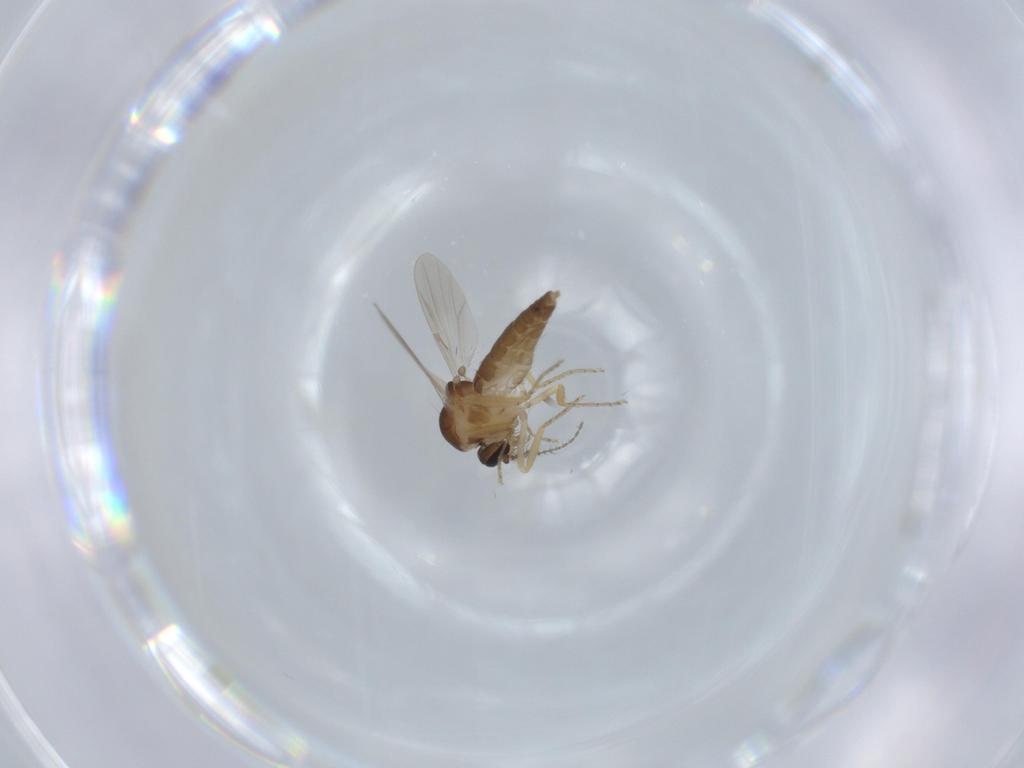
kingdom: Animalia
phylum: Arthropoda
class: Insecta
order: Diptera
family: Ceratopogonidae
